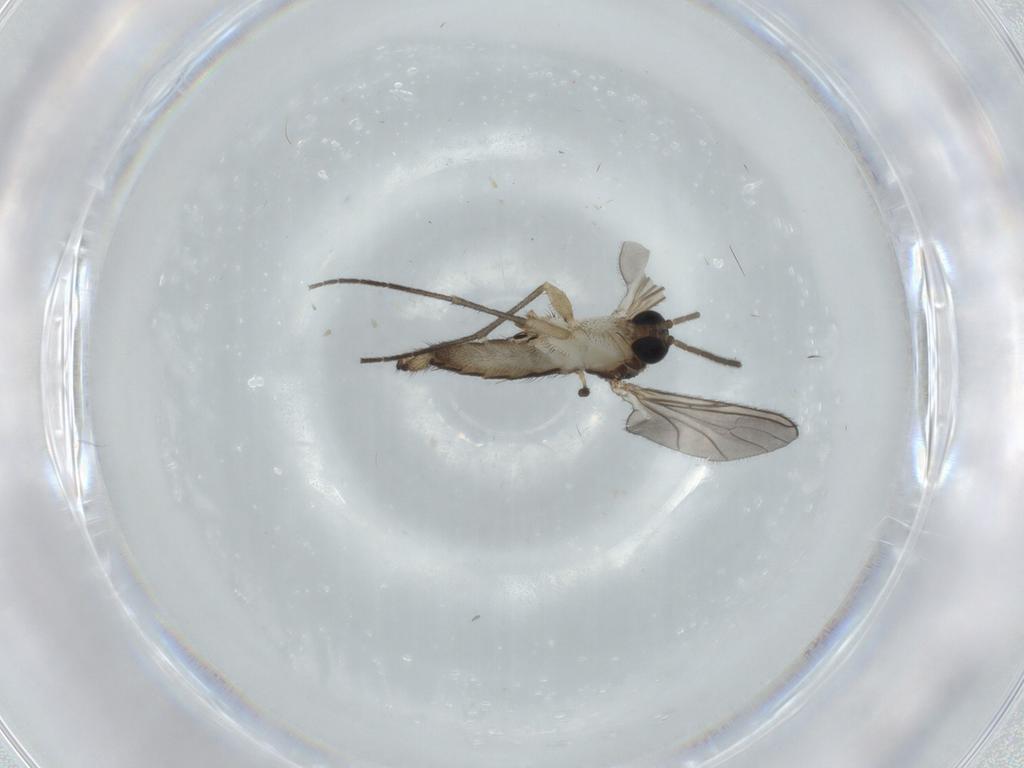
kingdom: Animalia
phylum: Arthropoda
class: Insecta
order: Diptera
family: Sciaridae
